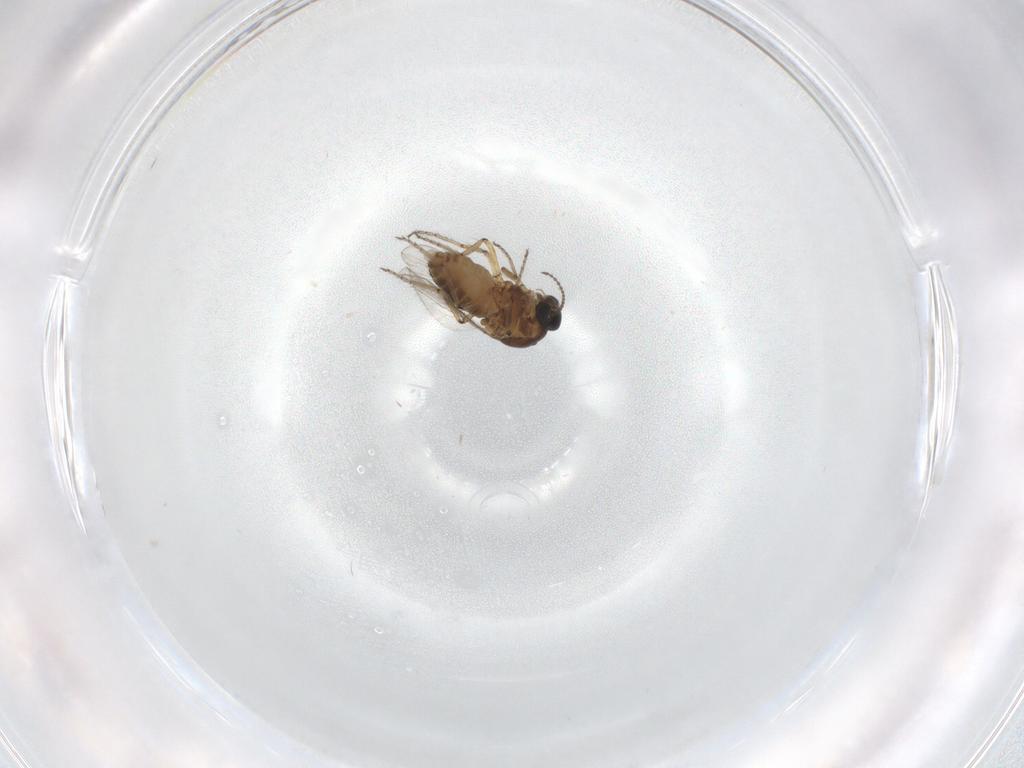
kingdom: Animalia
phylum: Arthropoda
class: Insecta
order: Diptera
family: Ceratopogonidae
